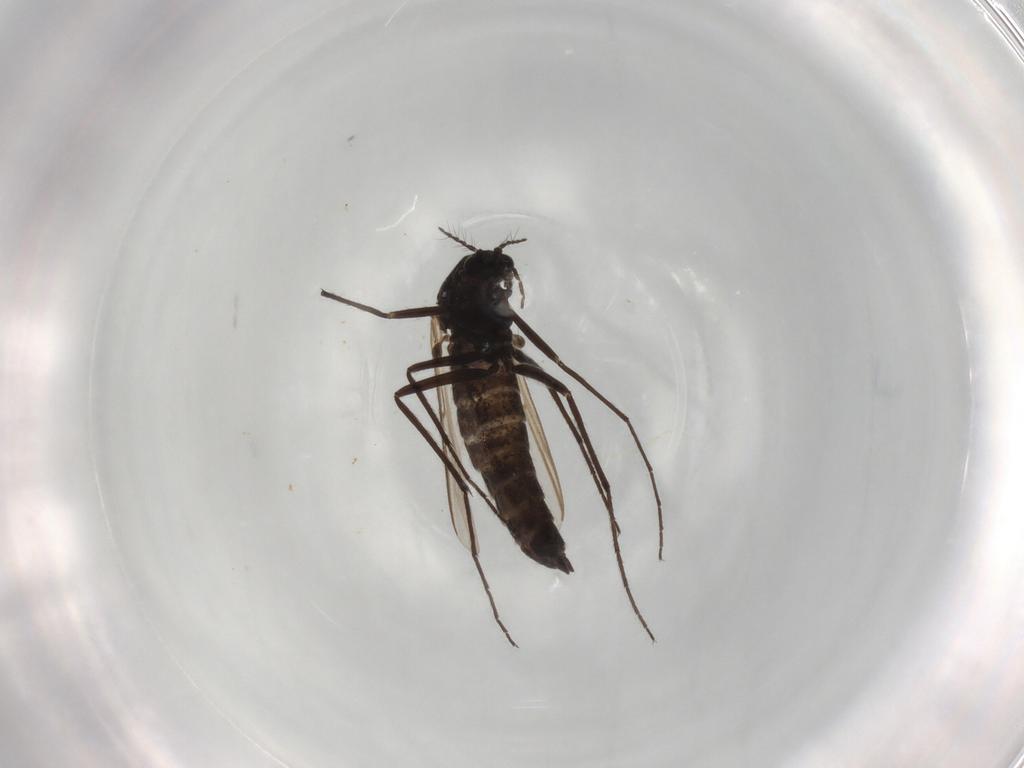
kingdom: Animalia
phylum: Arthropoda
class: Insecta
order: Diptera
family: Chironomidae
